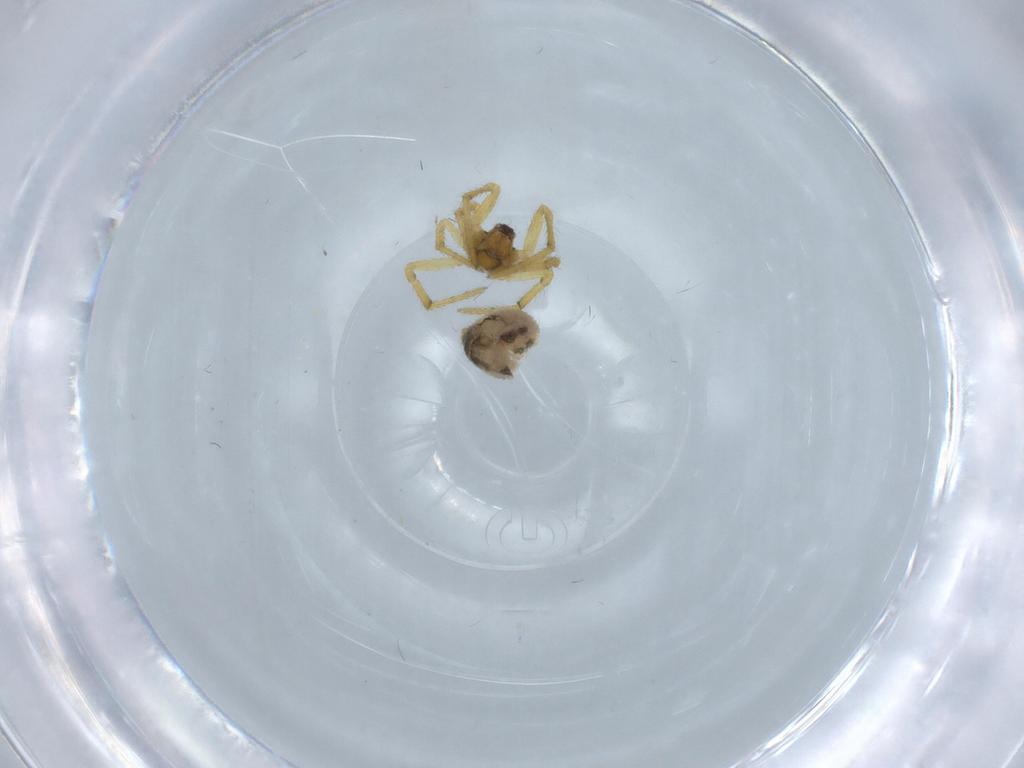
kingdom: Animalia
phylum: Arthropoda
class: Arachnida
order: Araneae
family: Theridiidae
